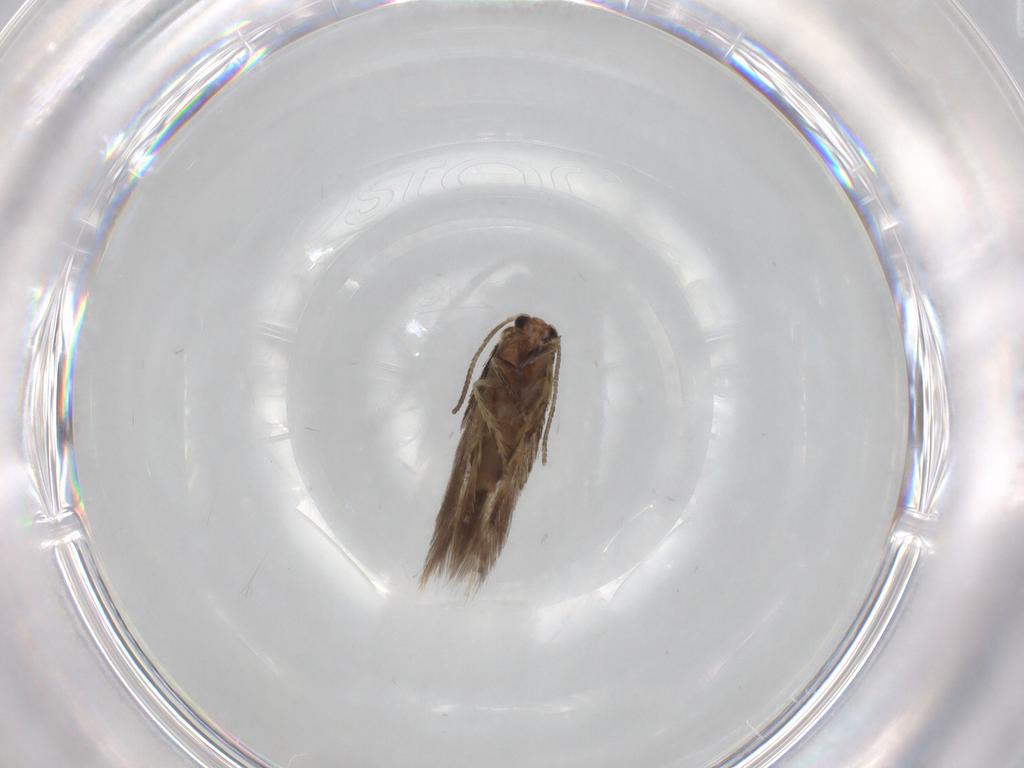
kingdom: Animalia
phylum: Arthropoda
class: Insecta
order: Lepidoptera
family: Nepticulidae
